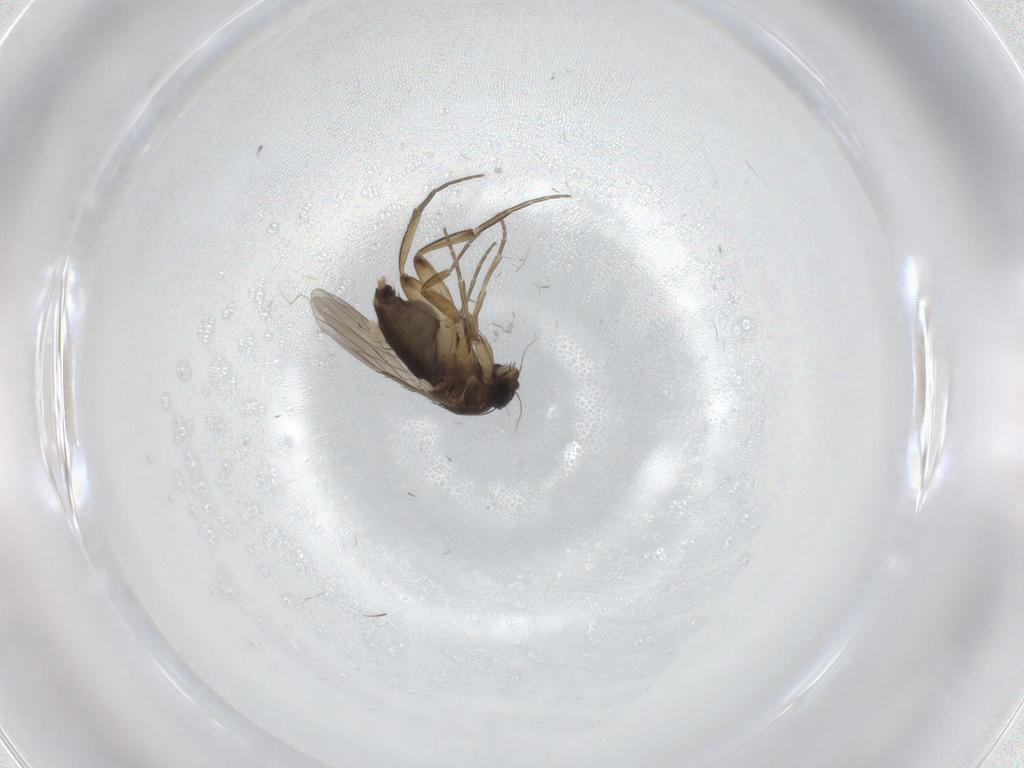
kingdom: Animalia
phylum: Arthropoda
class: Insecta
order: Diptera
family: Phoridae
